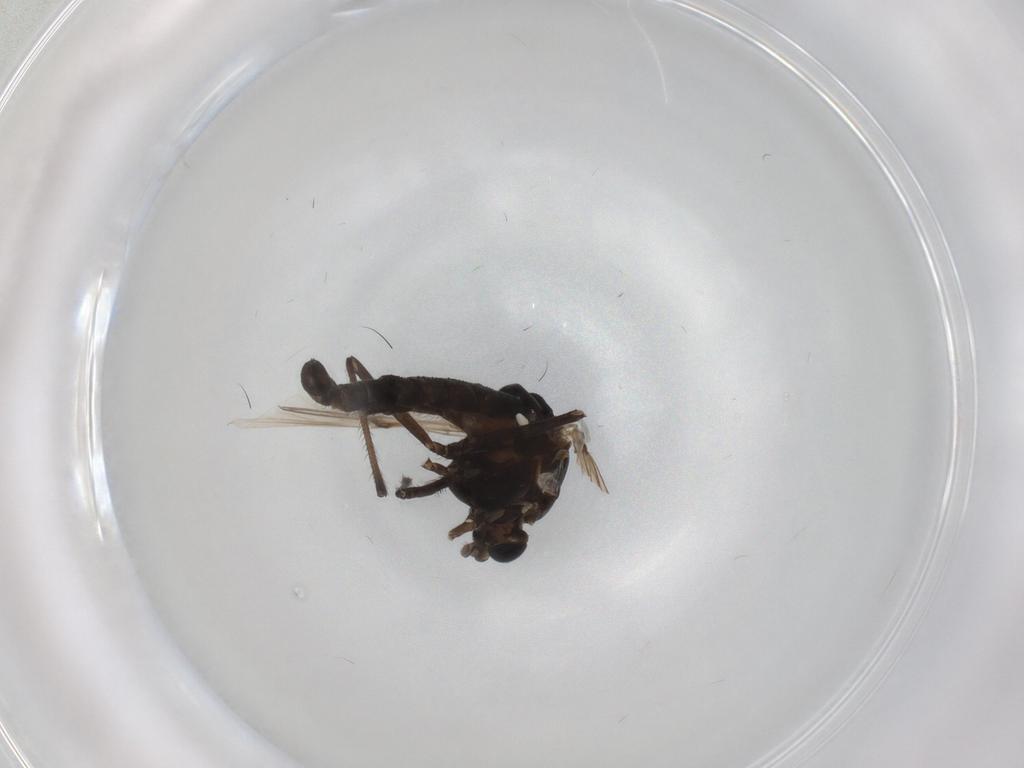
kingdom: Animalia
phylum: Arthropoda
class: Insecta
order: Diptera
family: Chironomidae
